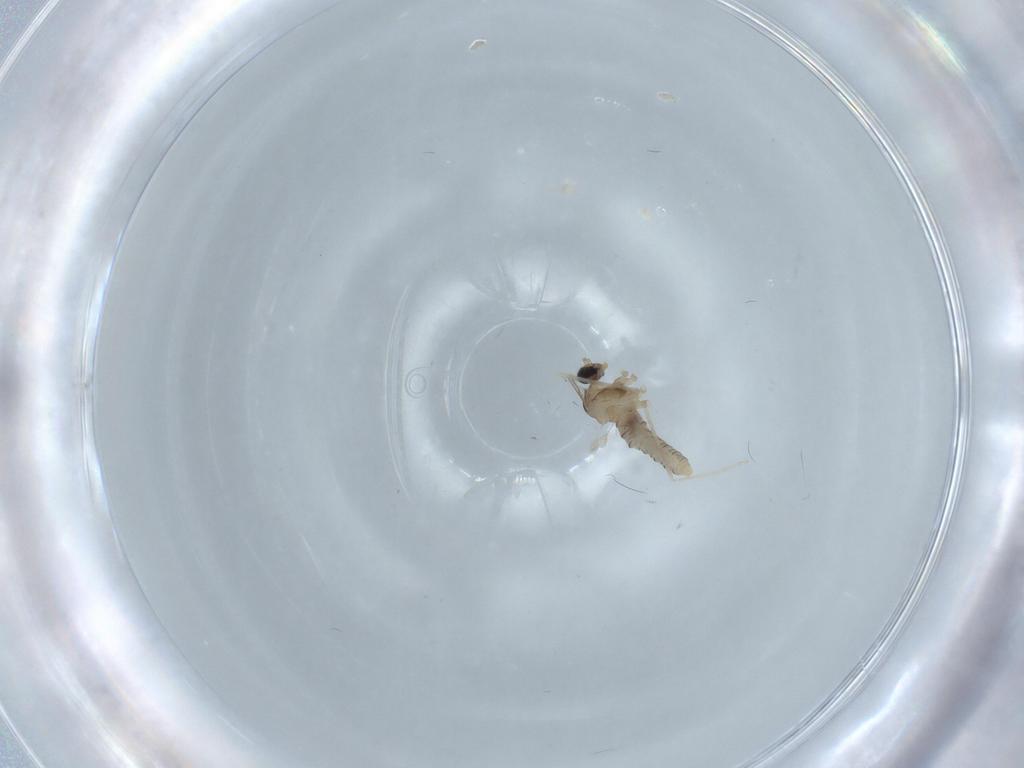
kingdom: Animalia
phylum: Arthropoda
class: Insecta
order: Diptera
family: Cecidomyiidae
